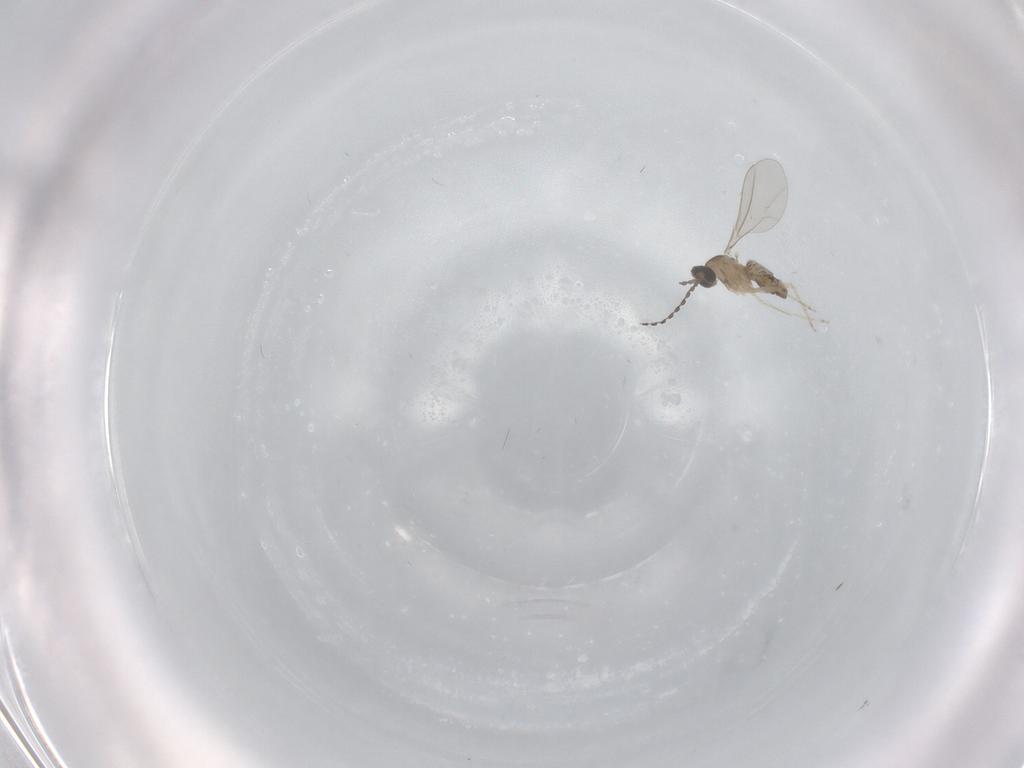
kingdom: Animalia
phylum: Arthropoda
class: Insecta
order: Diptera
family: Cecidomyiidae
